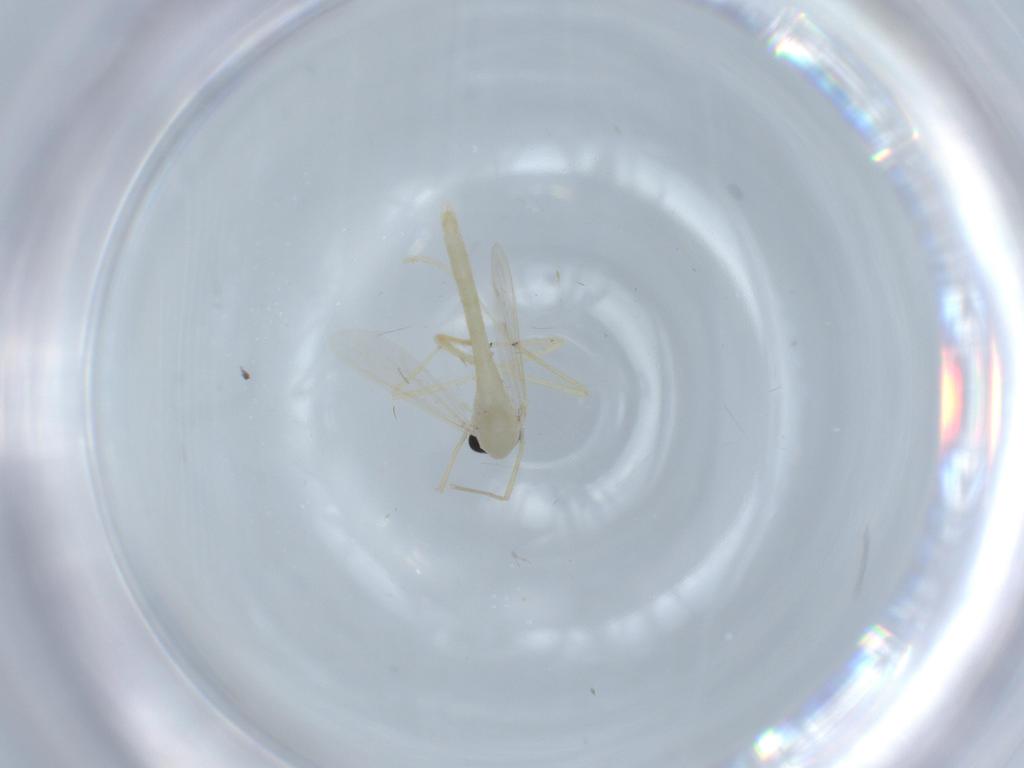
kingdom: Animalia
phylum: Arthropoda
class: Insecta
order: Diptera
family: Chironomidae
